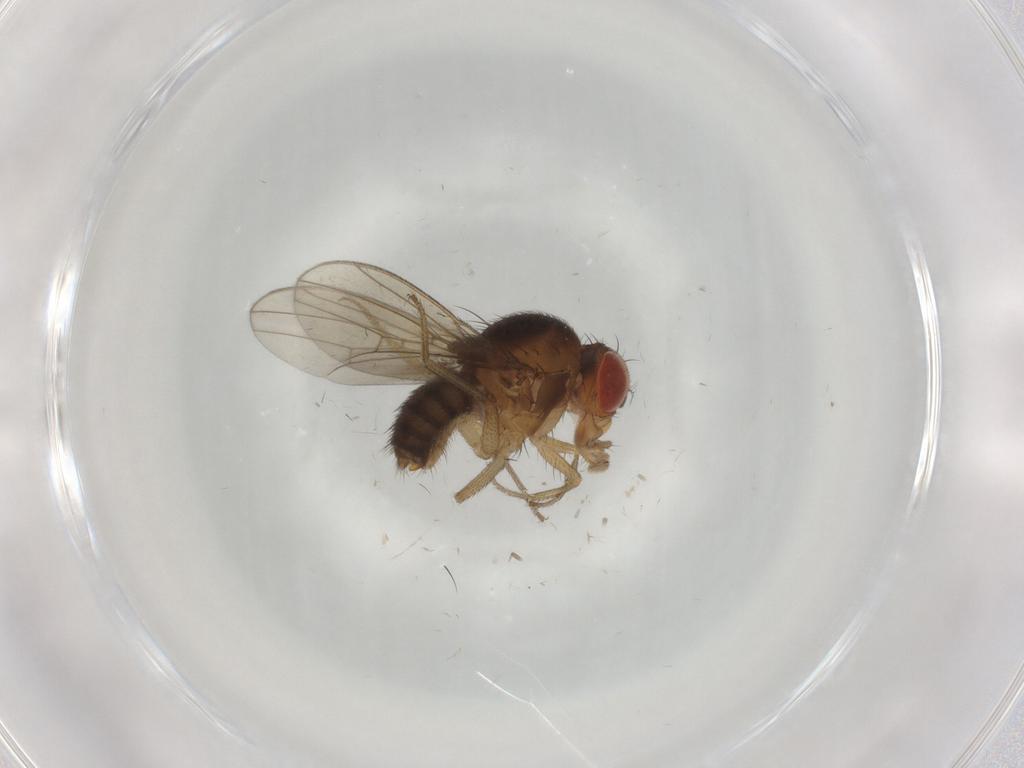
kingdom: Animalia
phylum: Arthropoda
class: Insecta
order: Diptera
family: Drosophilidae
